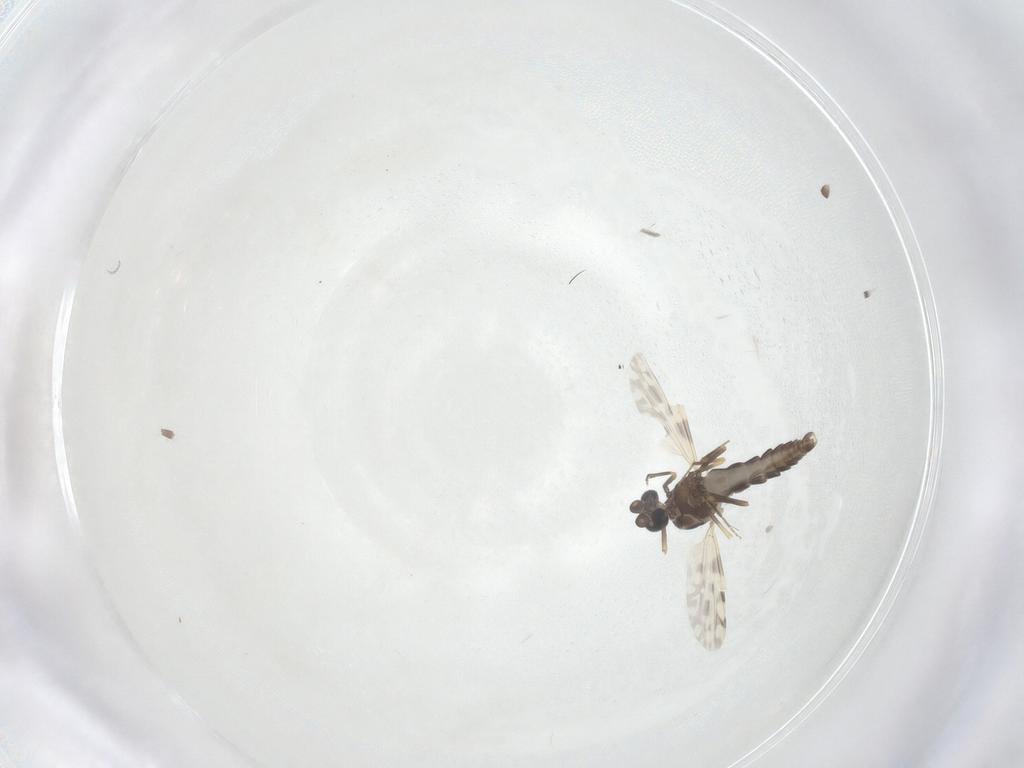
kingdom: Animalia
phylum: Arthropoda
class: Insecta
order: Diptera
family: Ceratopogonidae
